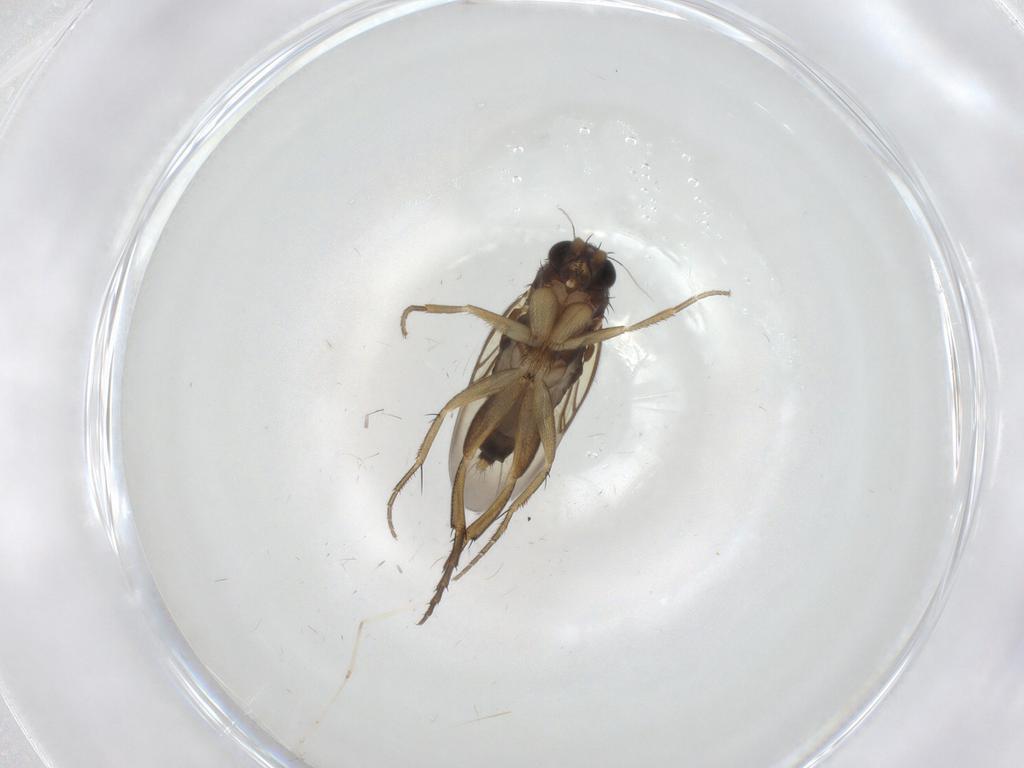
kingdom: Animalia
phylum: Arthropoda
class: Insecta
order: Diptera
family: Phoridae
